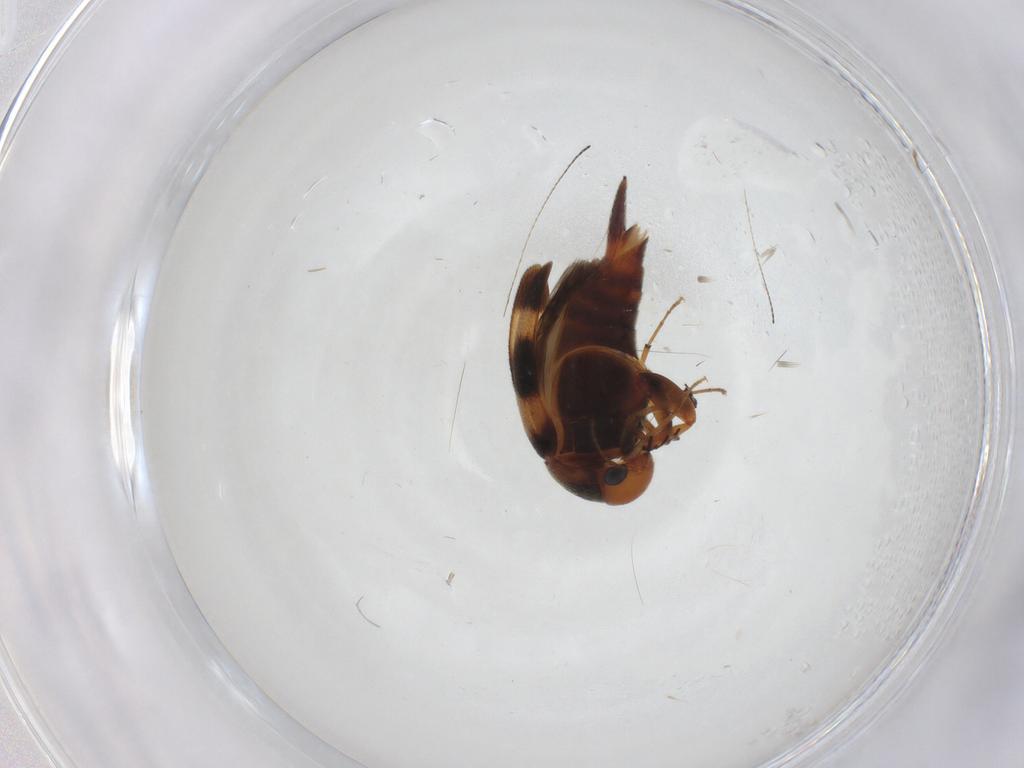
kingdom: Animalia
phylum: Arthropoda
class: Insecta
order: Coleoptera
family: Mordellidae
